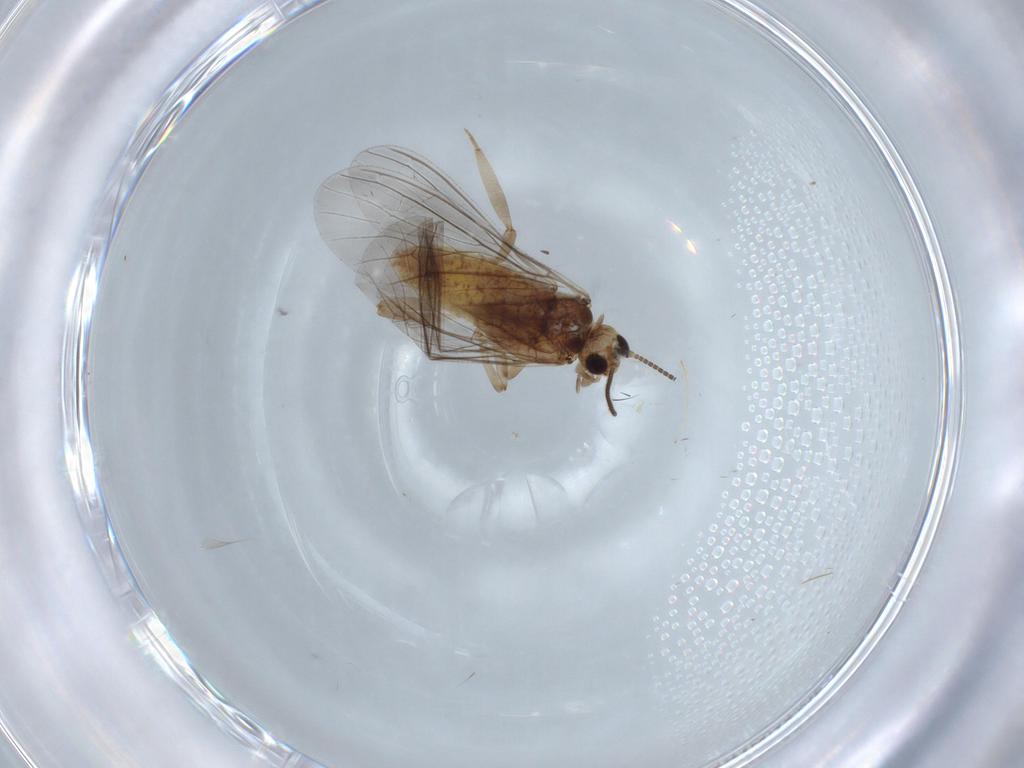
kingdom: Animalia
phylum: Arthropoda
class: Insecta
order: Neuroptera
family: Coniopterygidae
